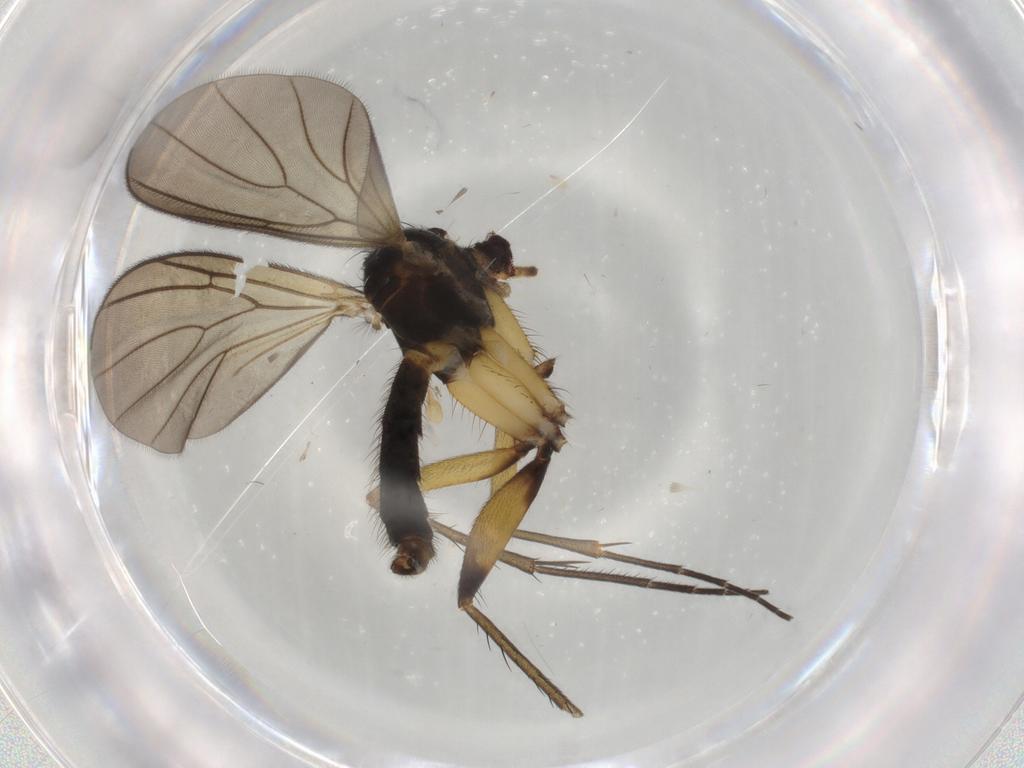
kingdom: Animalia
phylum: Arthropoda
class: Insecta
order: Diptera
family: Mycetophilidae
